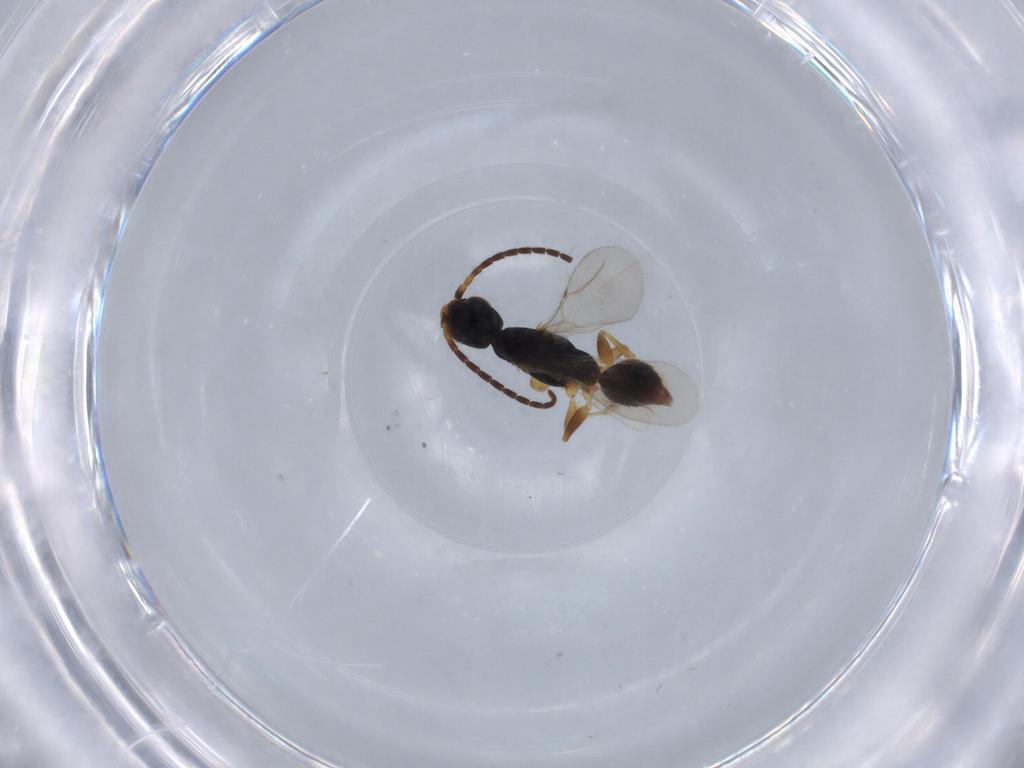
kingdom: Animalia
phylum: Arthropoda
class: Insecta
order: Hymenoptera
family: Bethylidae
